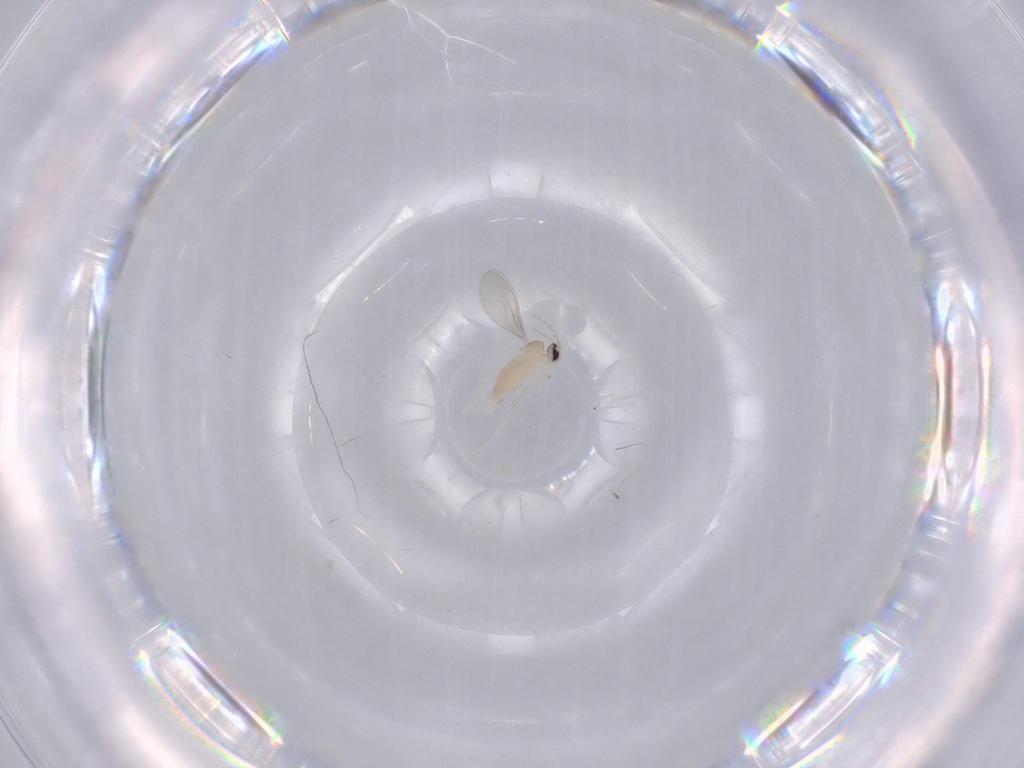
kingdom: Animalia
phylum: Arthropoda
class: Insecta
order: Diptera
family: Cecidomyiidae
